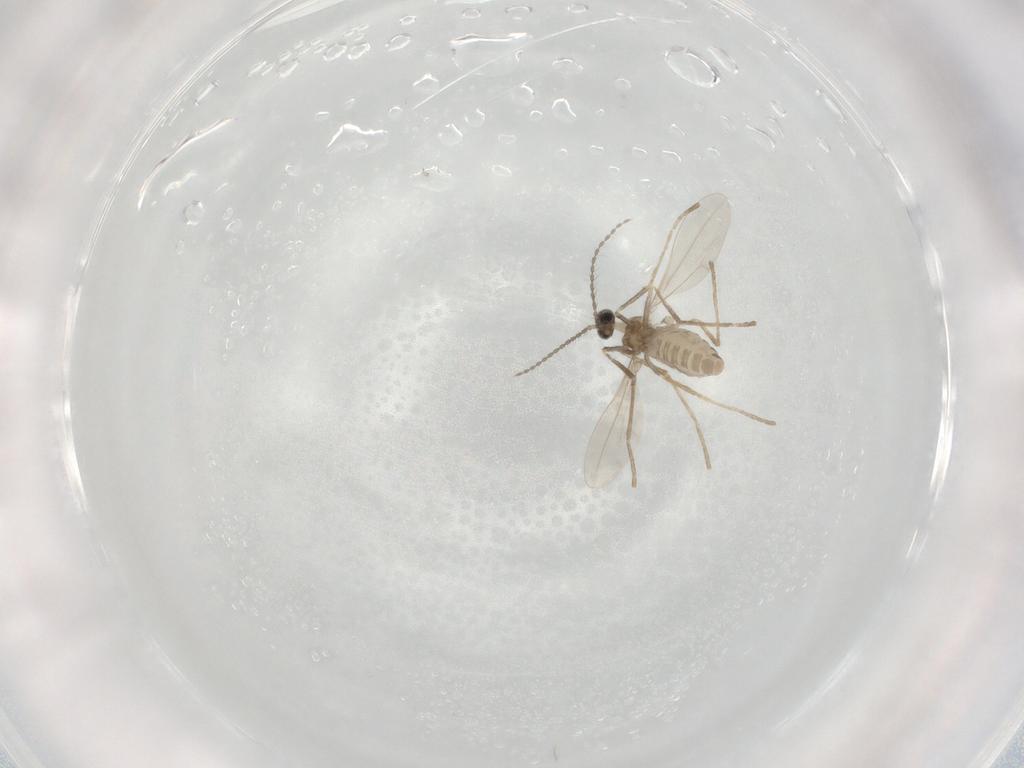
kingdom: Animalia
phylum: Arthropoda
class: Insecta
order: Diptera
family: Cecidomyiidae
